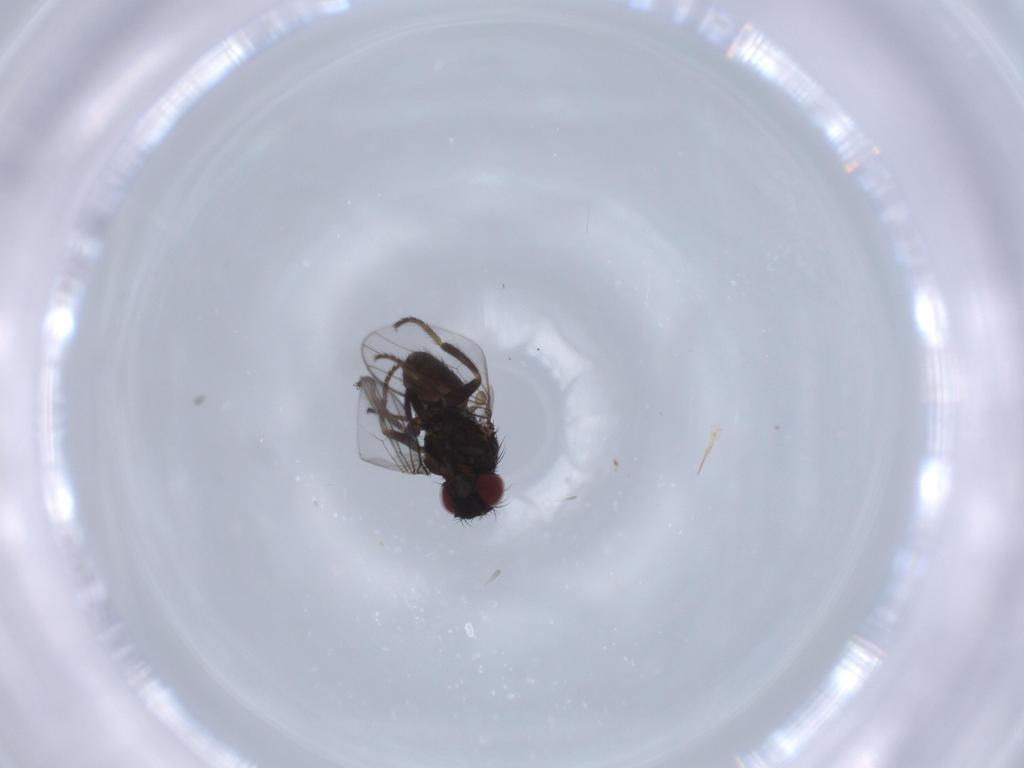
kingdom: Animalia
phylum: Arthropoda
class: Insecta
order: Diptera
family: Milichiidae
